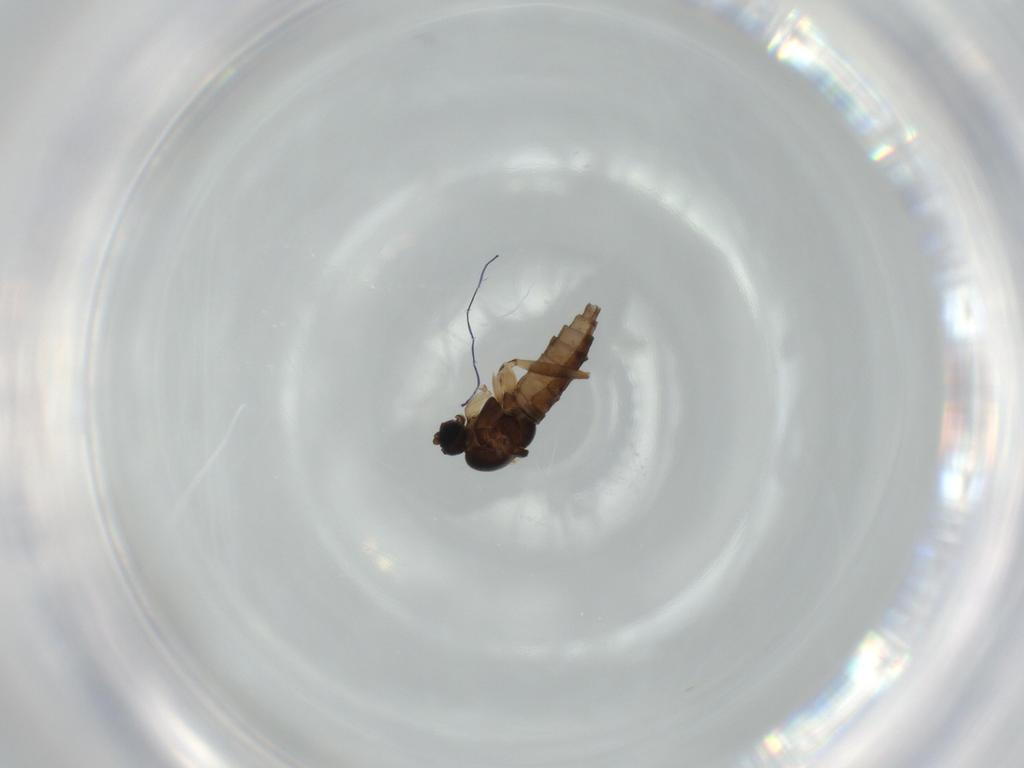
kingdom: Animalia
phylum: Arthropoda
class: Insecta
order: Diptera
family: Sciaridae
